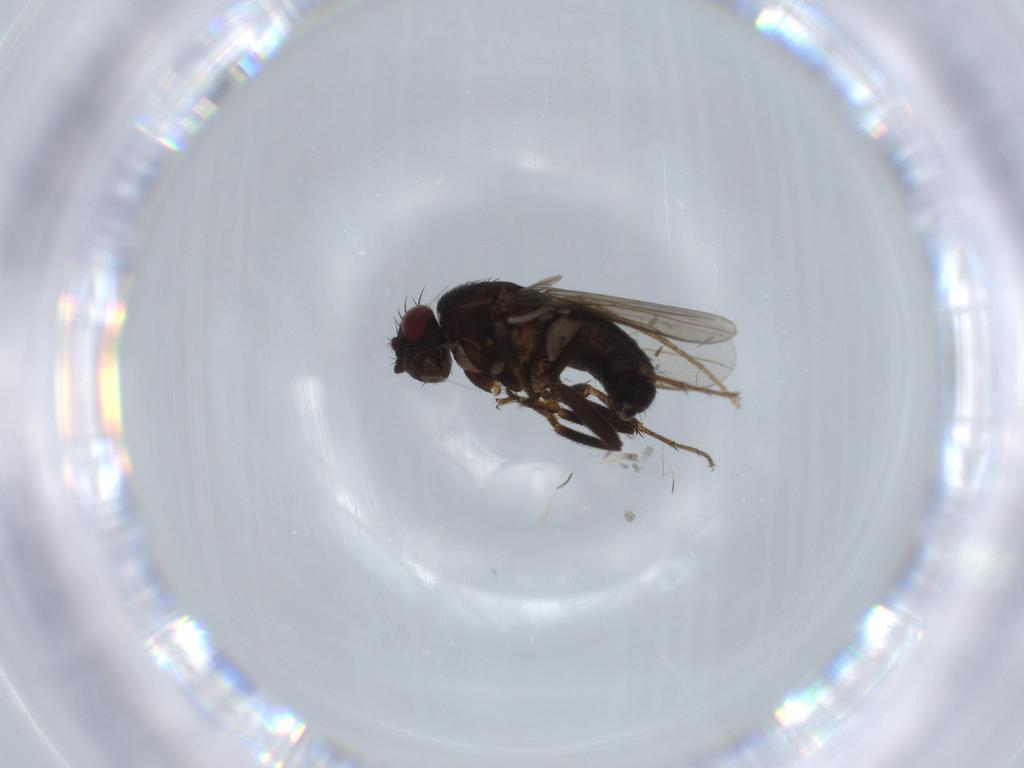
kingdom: Animalia
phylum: Arthropoda
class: Insecta
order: Diptera
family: Sphaeroceridae
